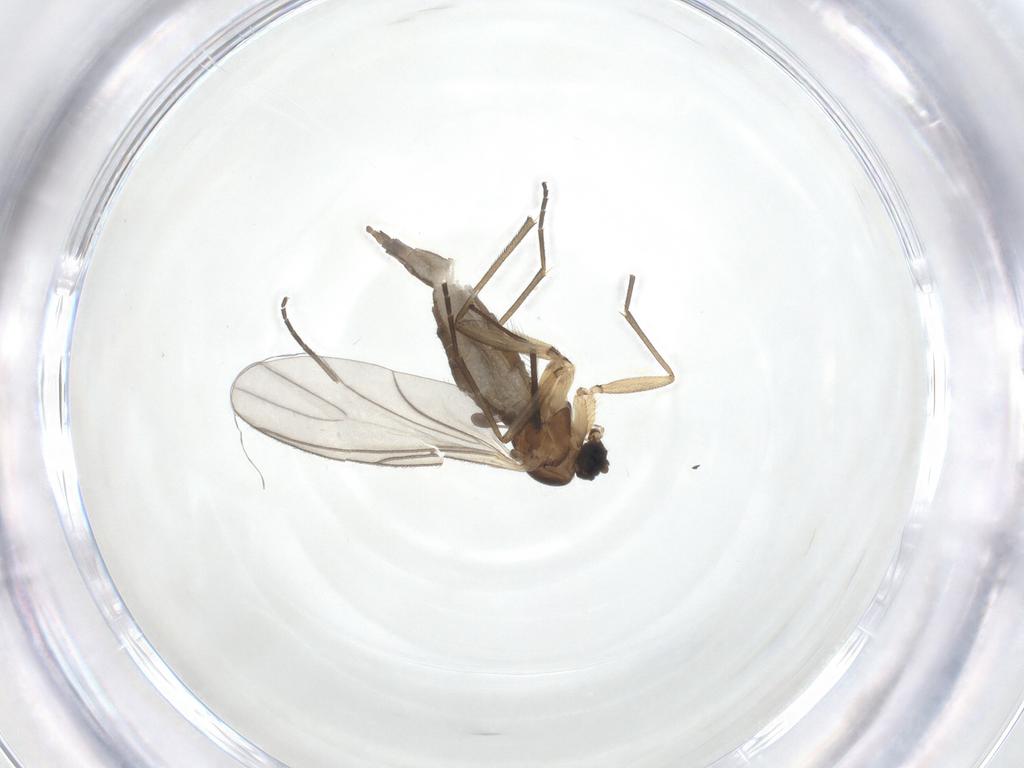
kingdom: Animalia
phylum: Arthropoda
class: Insecta
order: Diptera
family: Sciaridae
